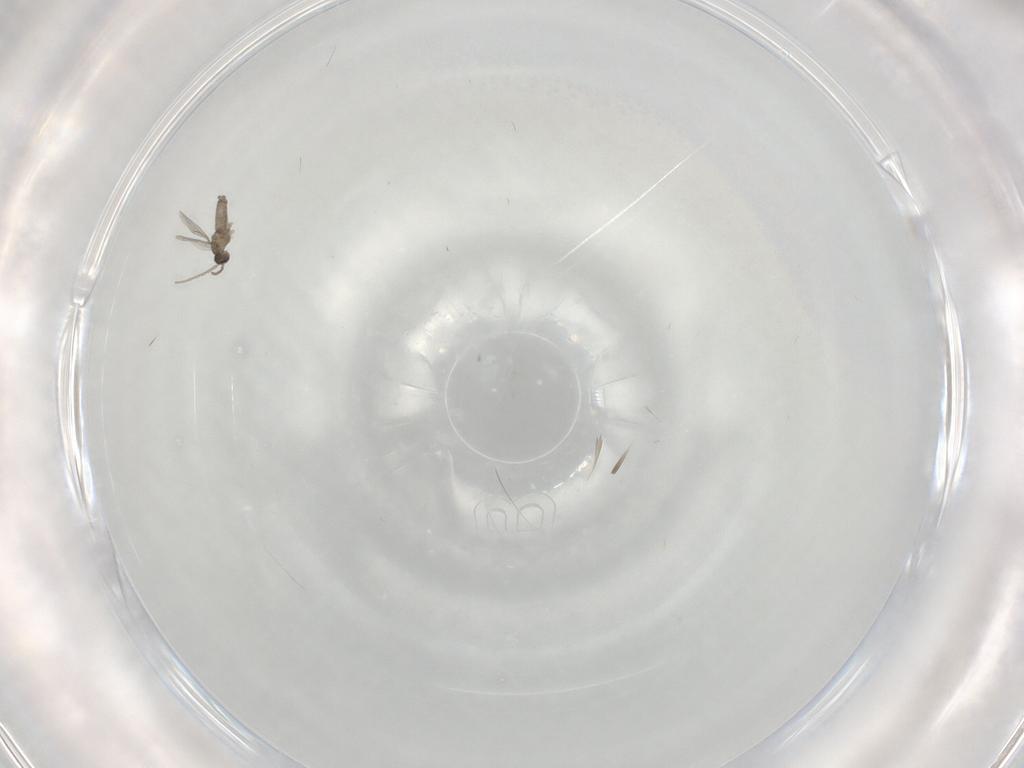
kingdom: Animalia
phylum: Arthropoda
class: Insecta
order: Diptera
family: Cecidomyiidae
